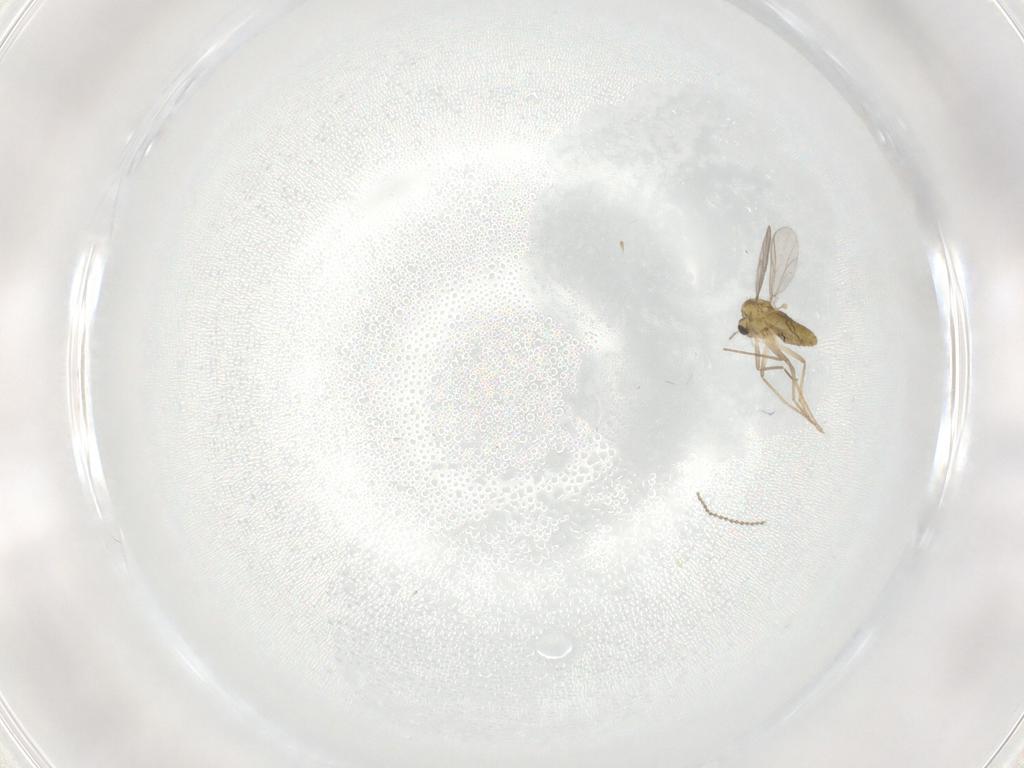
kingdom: Animalia
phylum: Arthropoda
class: Insecta
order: Diptera
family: Chironomidae
